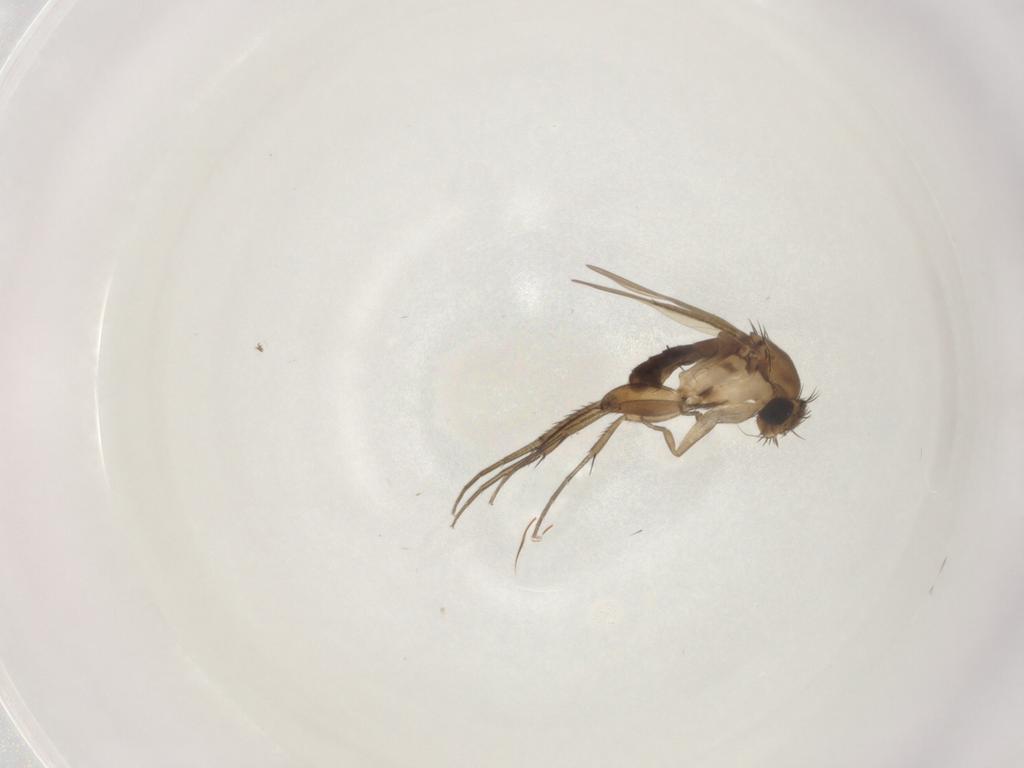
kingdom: Animalia
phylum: Arthropoda
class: Insecta
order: Diptera
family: Phoridae
